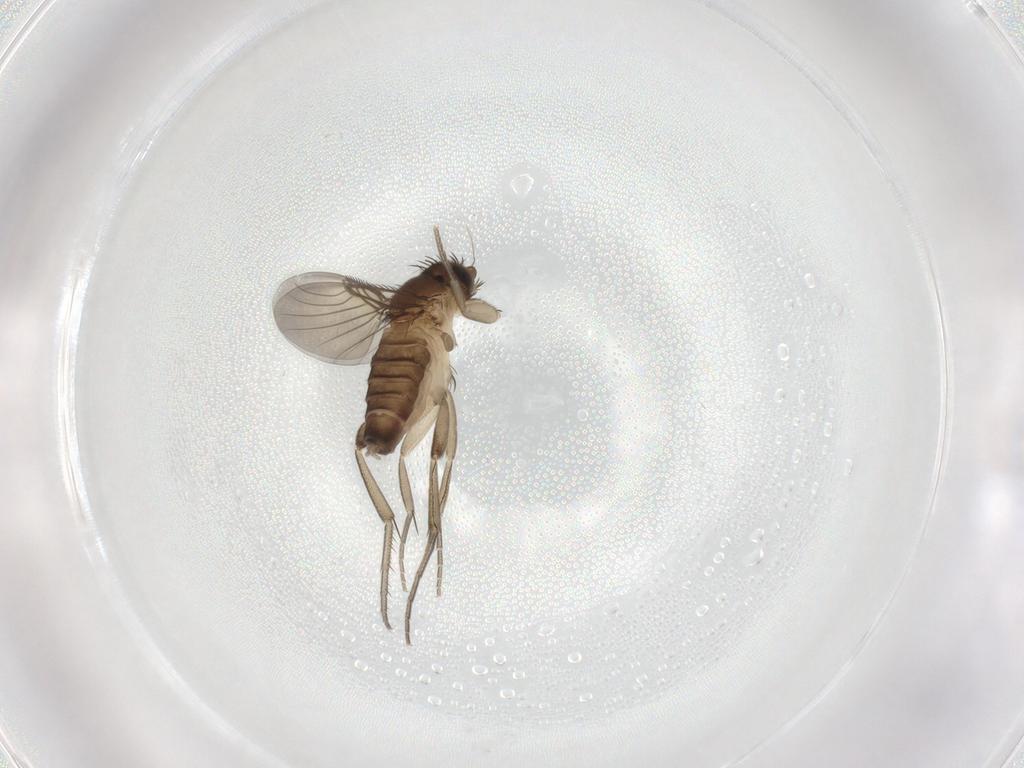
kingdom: Animalia
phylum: Arthropoda
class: Insecta
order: Diptera
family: Phoridae
